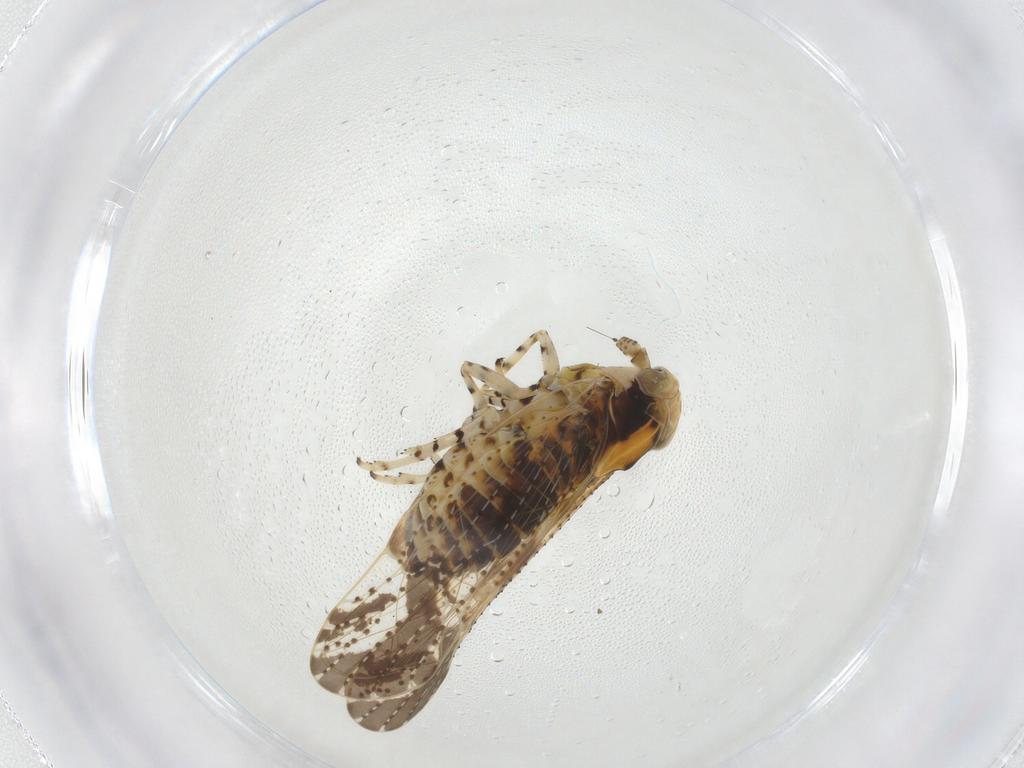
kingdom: Animalia
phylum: Arthropoda
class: Insecta
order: Hemiptera
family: Delphacidae
